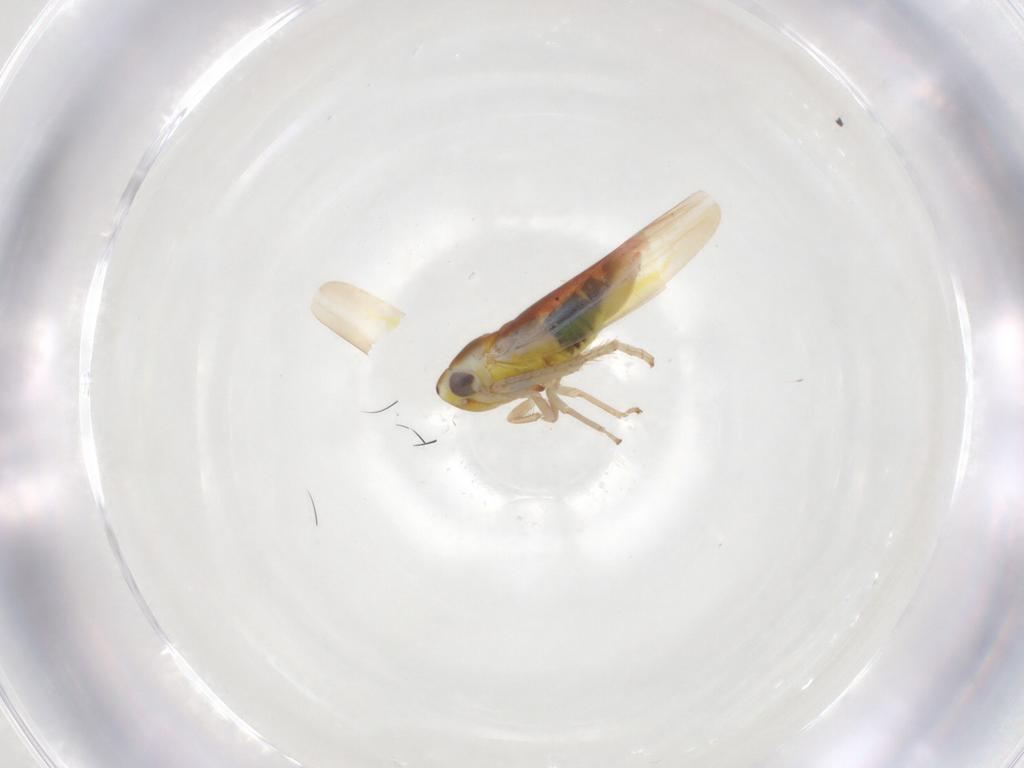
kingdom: Animalia
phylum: Arthropoda
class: Insecta
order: Hemiptera
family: Cicadellidae
